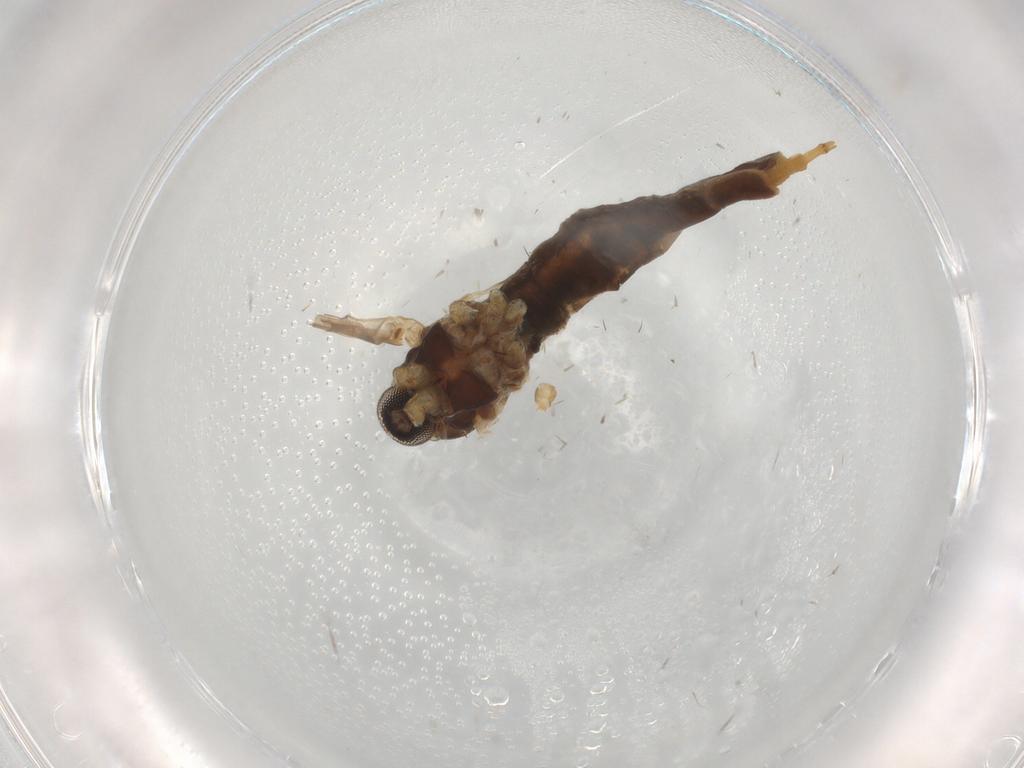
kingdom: Animalia
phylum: Arthropoda
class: Insecta
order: Diptera
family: Cecidomyiidae
